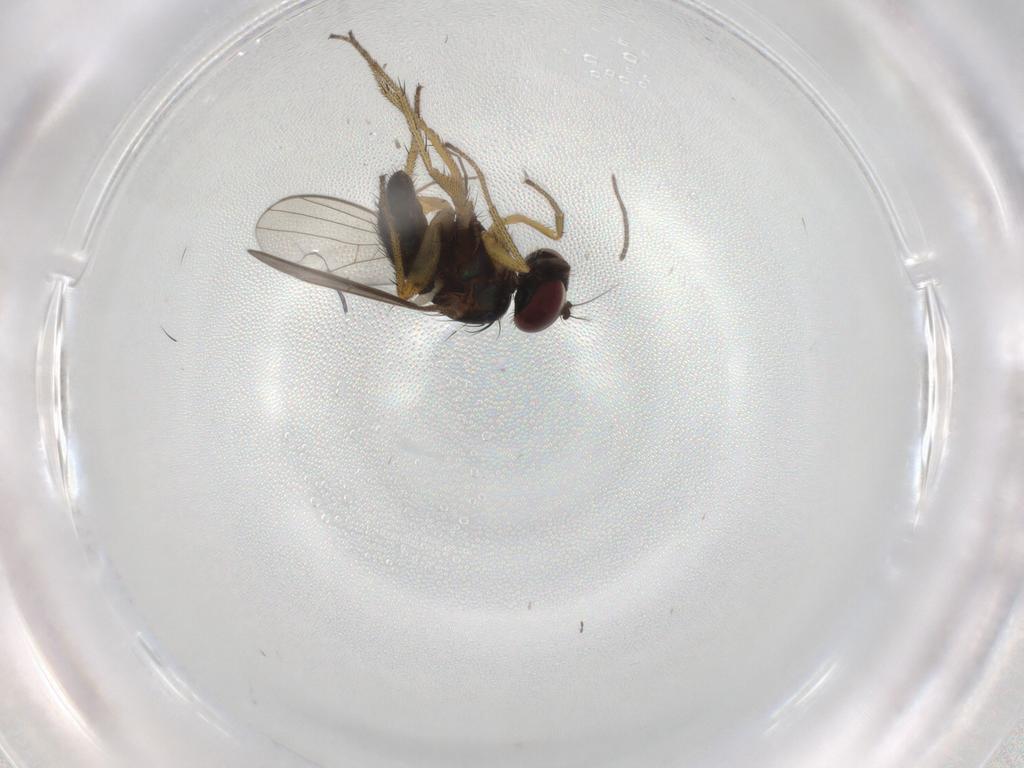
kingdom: Animalia
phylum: Arthropoda
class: Insecta
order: Diptera
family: Sciaridae
